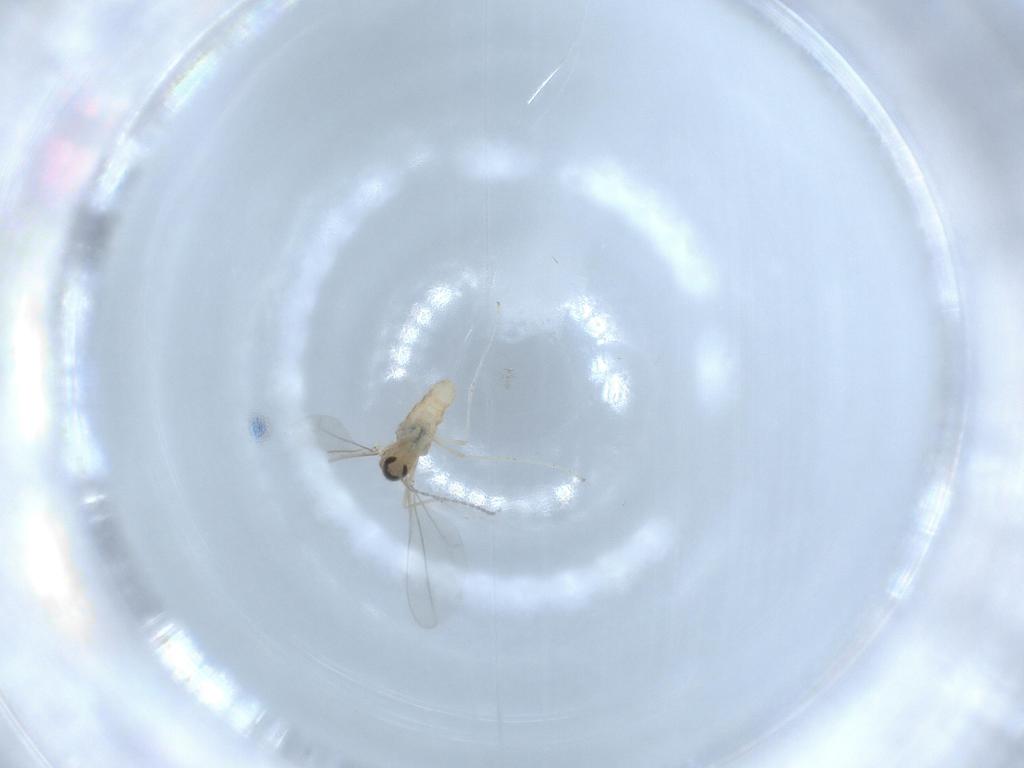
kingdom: Animalia
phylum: Arthropoda
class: Insecta
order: Diptera
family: Cecidomyiidae
